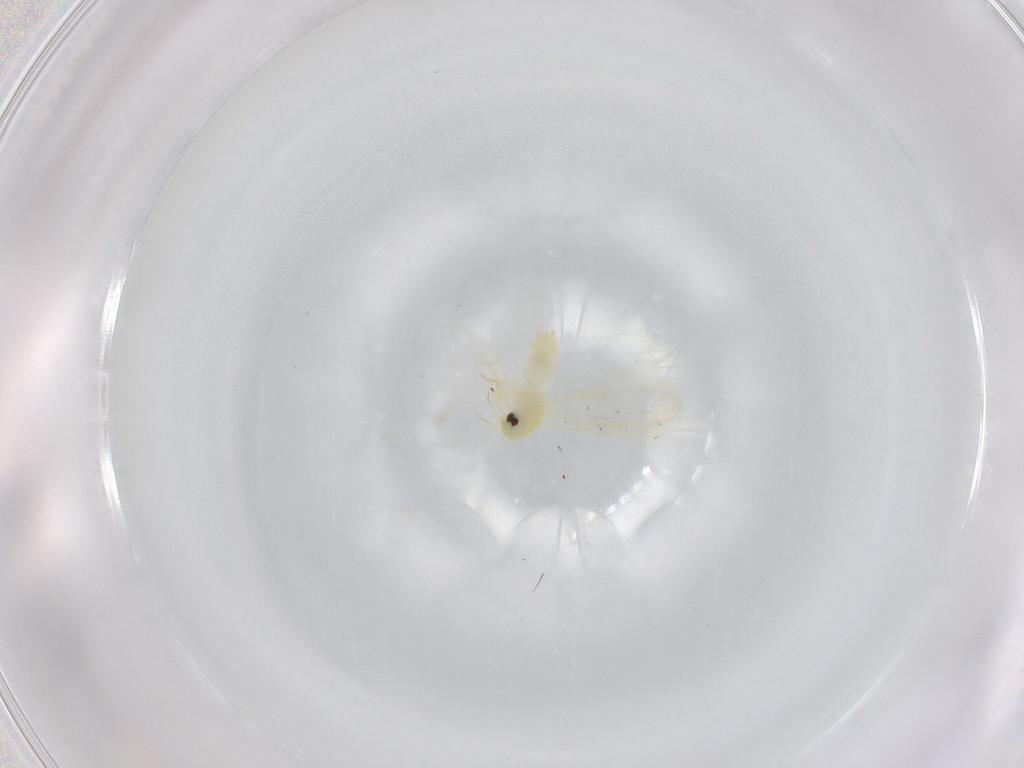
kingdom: Animalia
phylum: Arthropoda
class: Insecta
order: Hemiptera
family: Aleyrodidae
